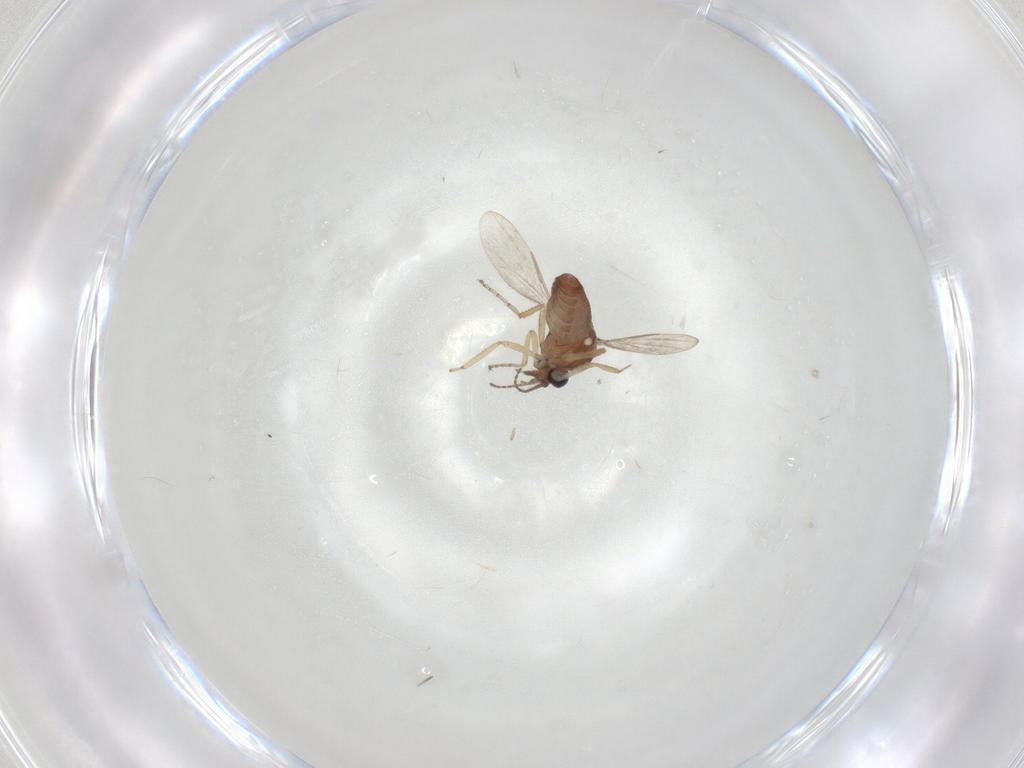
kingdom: Animalia
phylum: Arthropoda
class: Insecta
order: Diptera
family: Ceratopogonidae
